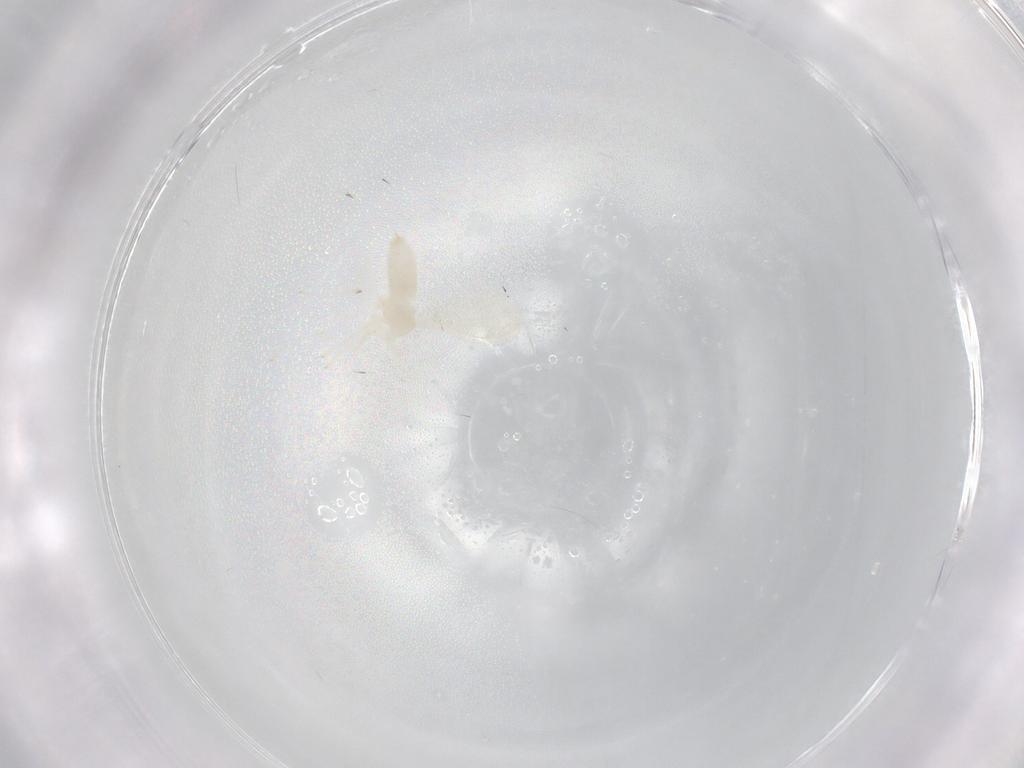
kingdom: Animalia
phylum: Arthropoda
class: Insecta
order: Diptera
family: Cecidomyiidae
